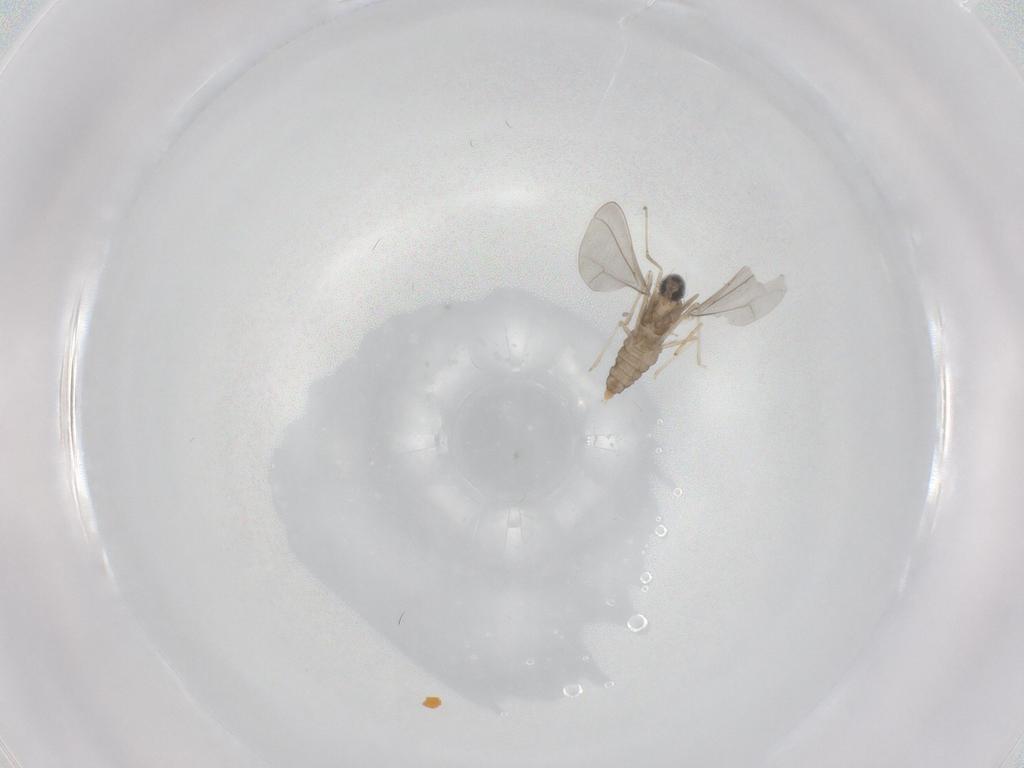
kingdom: Animalia
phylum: Arthropoda
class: Insecta
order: Diptera
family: Cecidomyiidae
